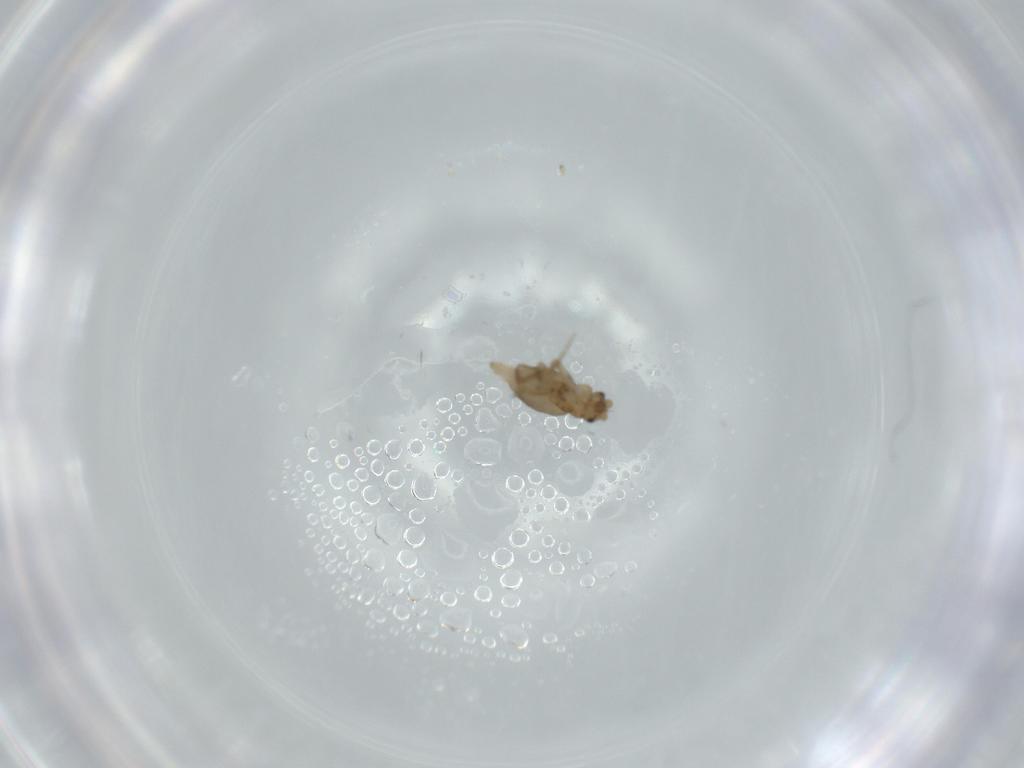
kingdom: Animalia
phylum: Arthropoda
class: Insecta
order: Diptera
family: Phoridae
